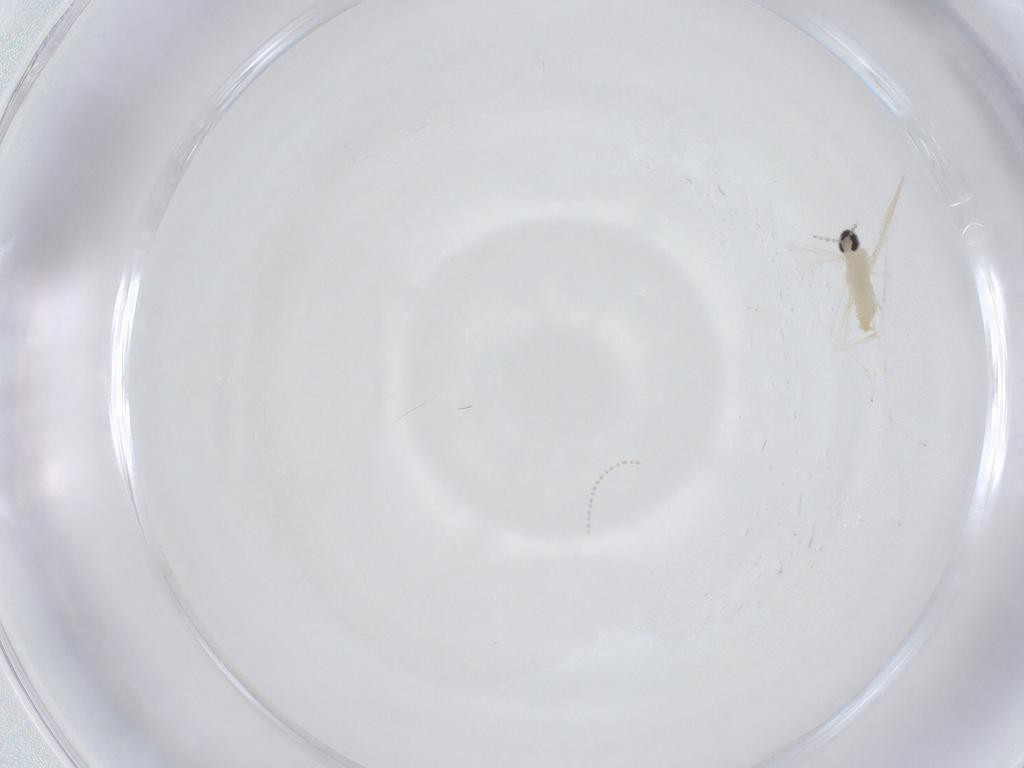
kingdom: Animalia
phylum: Arthropoda
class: Insecta
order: Diptera
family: Cecidomyiidae
